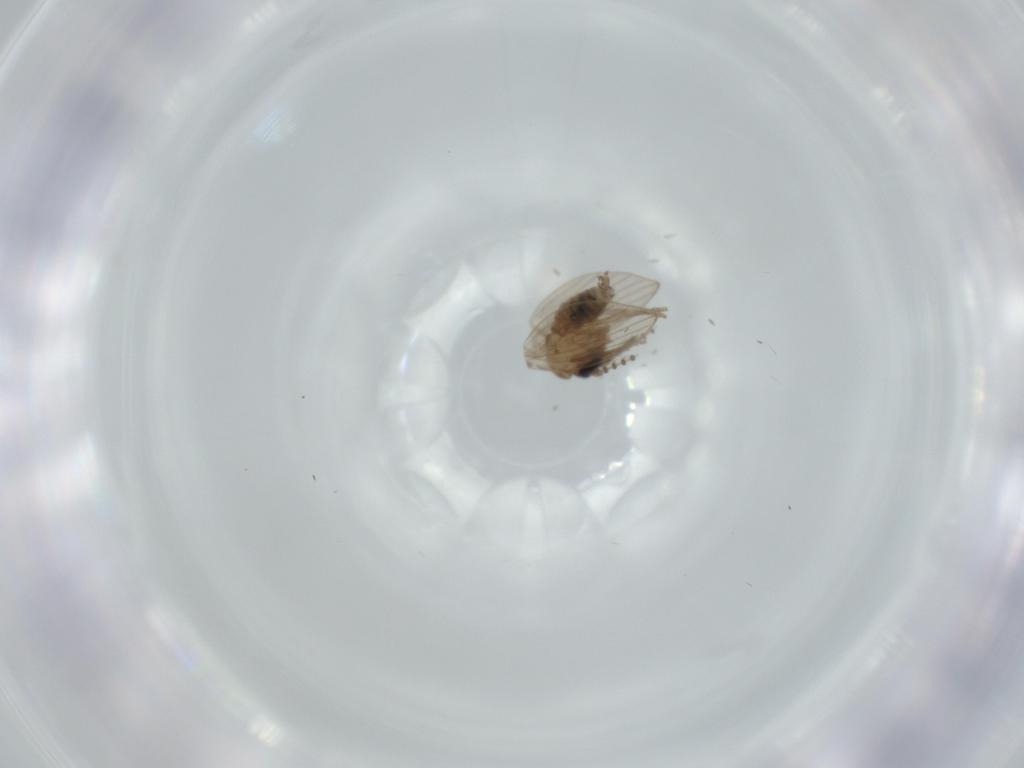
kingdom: Animalia
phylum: Arthropoda
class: Insecta
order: Diptera
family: Psychodidae
